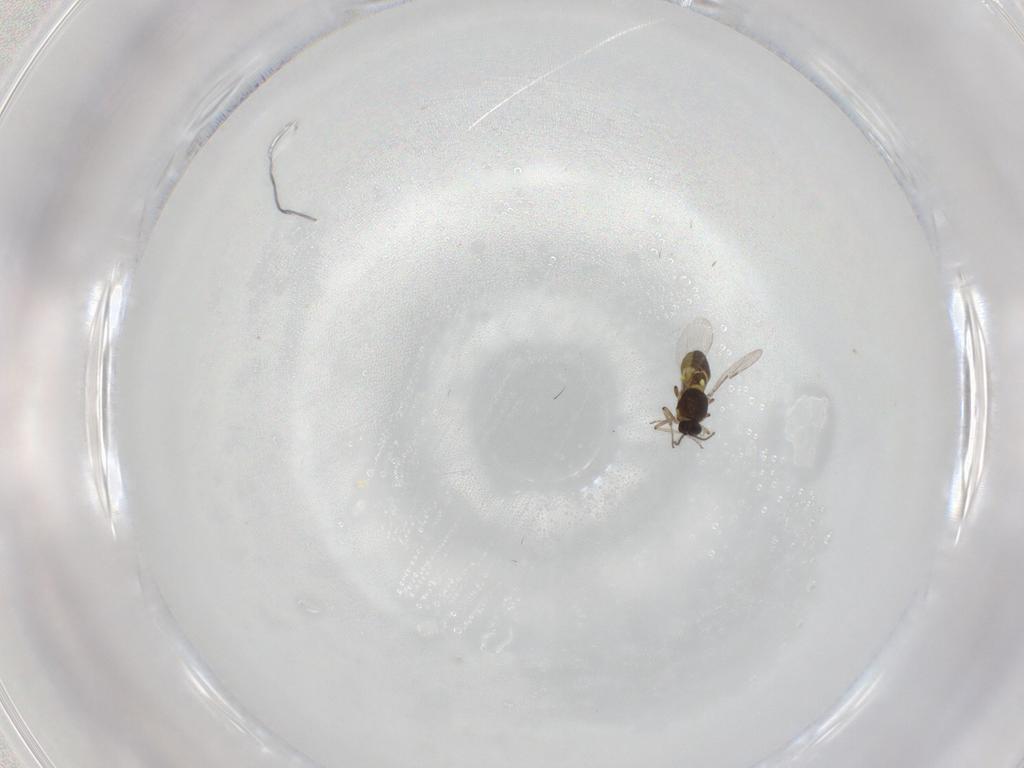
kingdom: Animalia
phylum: Arthropoda
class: Insecta
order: Diptera
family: Ceratopogonidae
